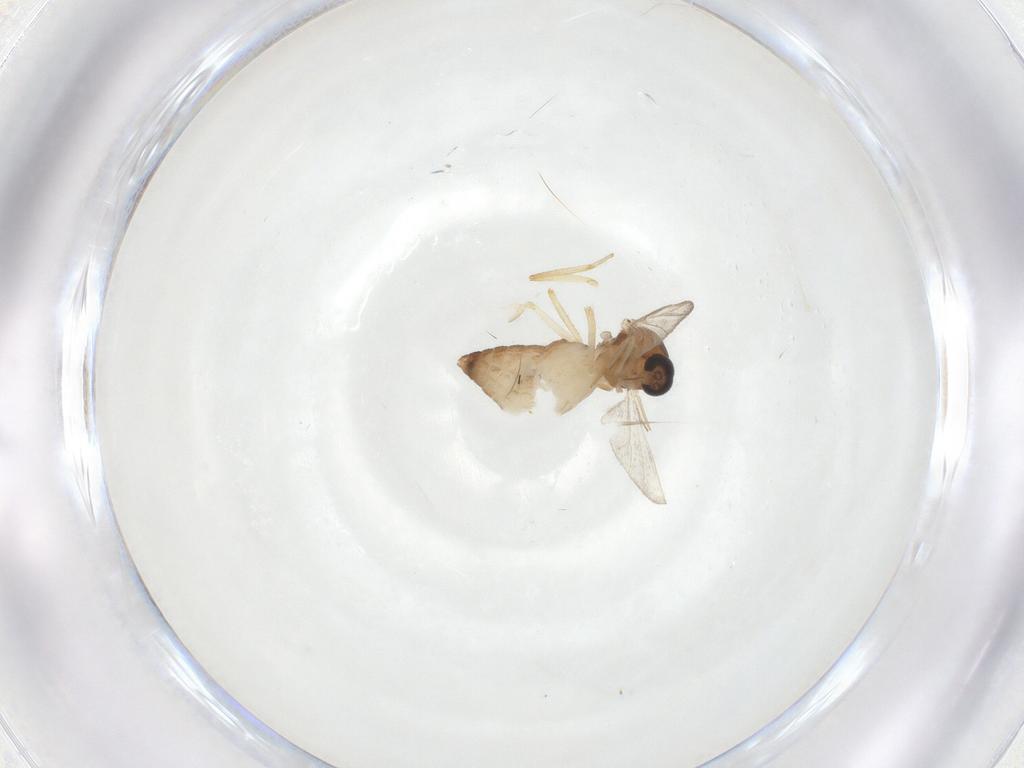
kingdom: Animalia
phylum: Arthropoda
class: Insecta
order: Diptera
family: Ceratopogonidae
